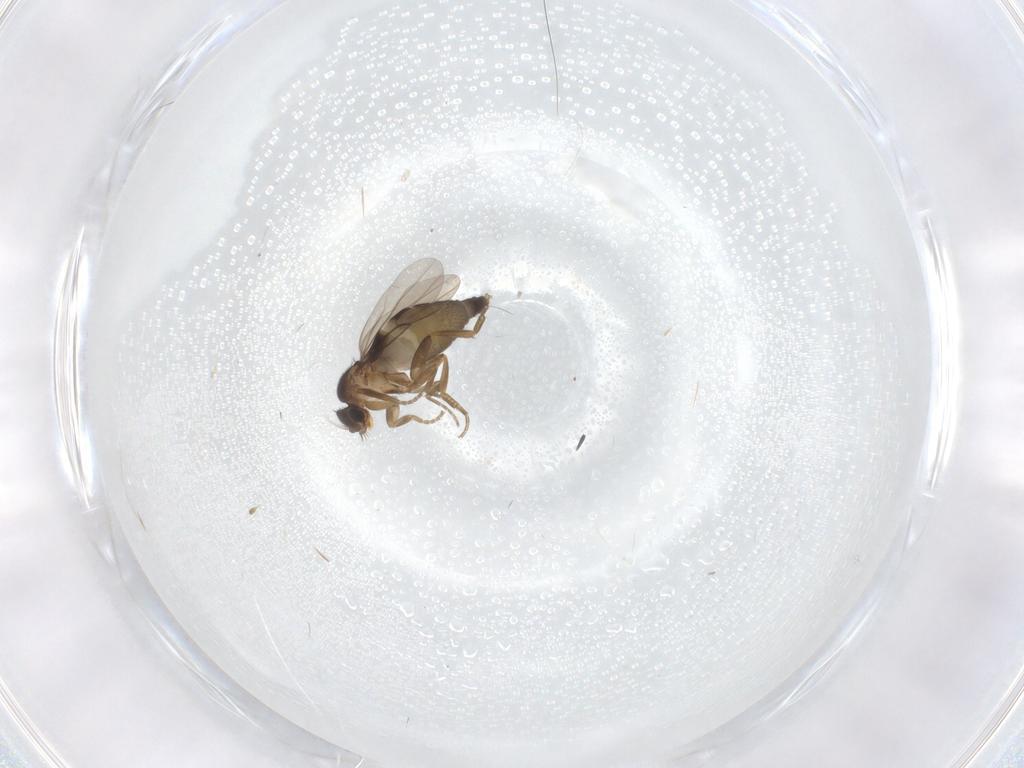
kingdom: Animalia
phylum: Arthropoda
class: Insecta
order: Diptera
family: Phoridae
